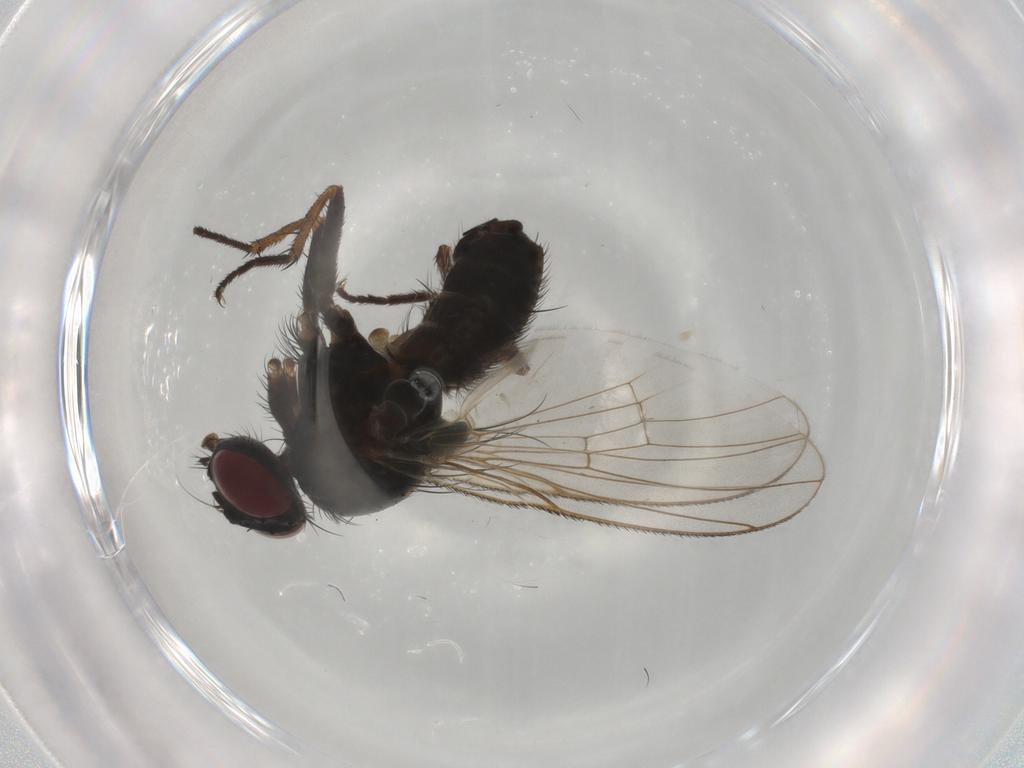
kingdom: Animalia
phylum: Arthropoda
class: Insecta
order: Diptera
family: Muscidae
